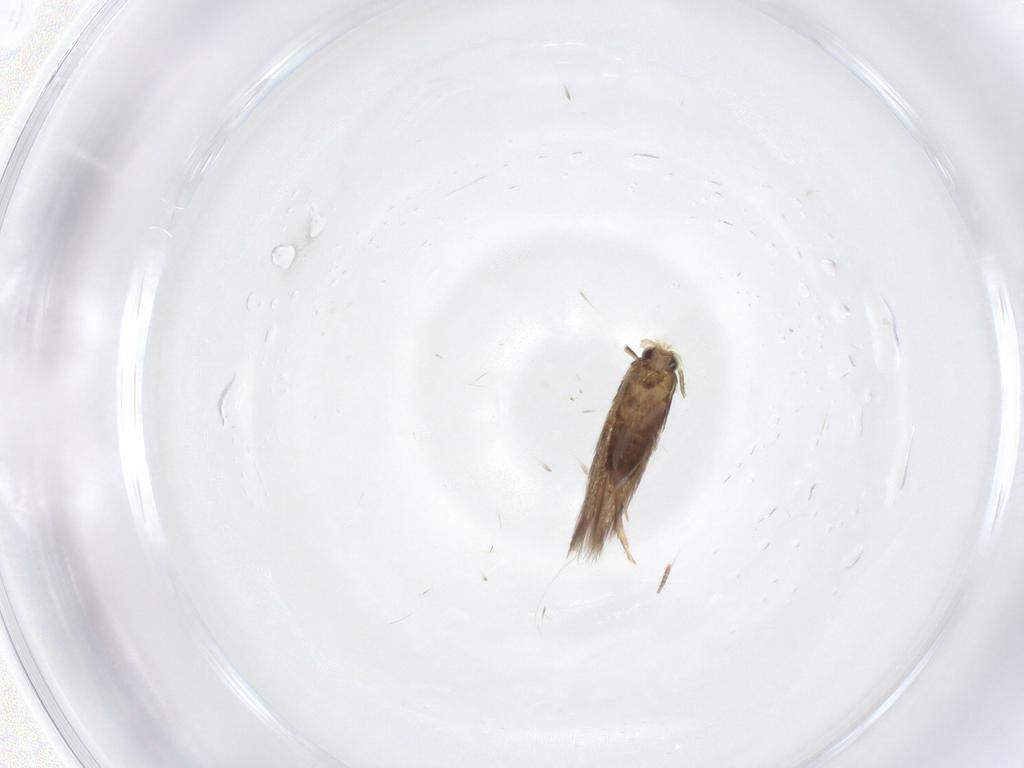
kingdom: Animalia
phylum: Arthropoda
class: Insecta
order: Lepidoptera
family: Nepticulidae
